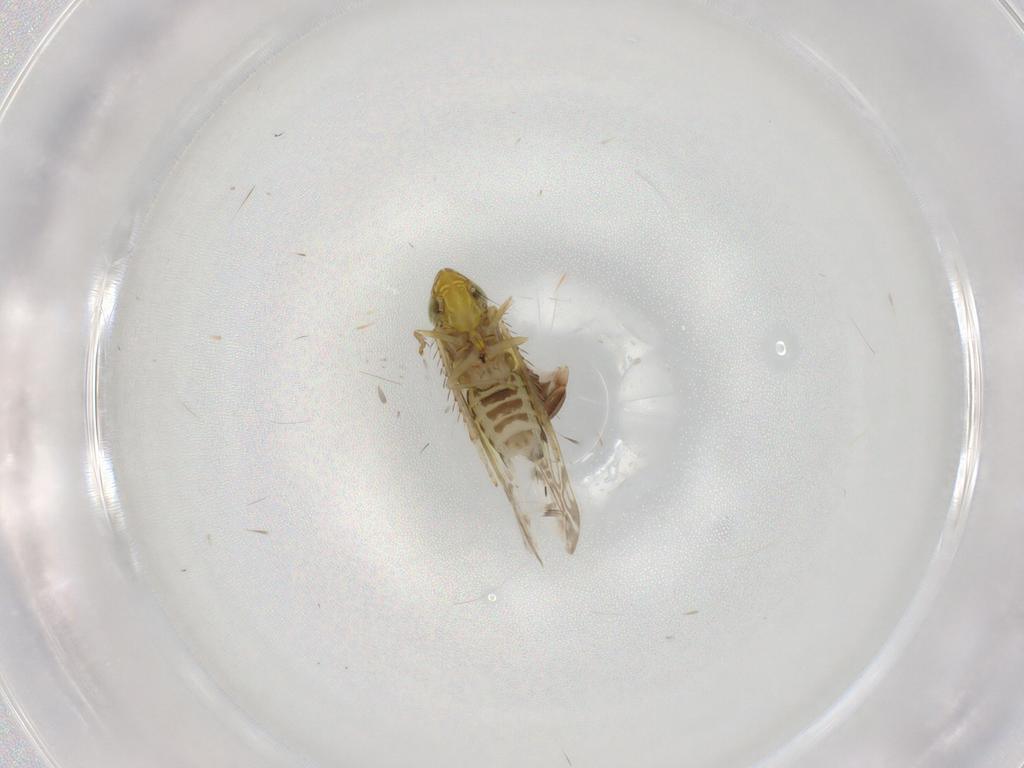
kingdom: Animalia
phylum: Arthropoda
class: Insecta
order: Hemiptera
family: Cicadellidae
